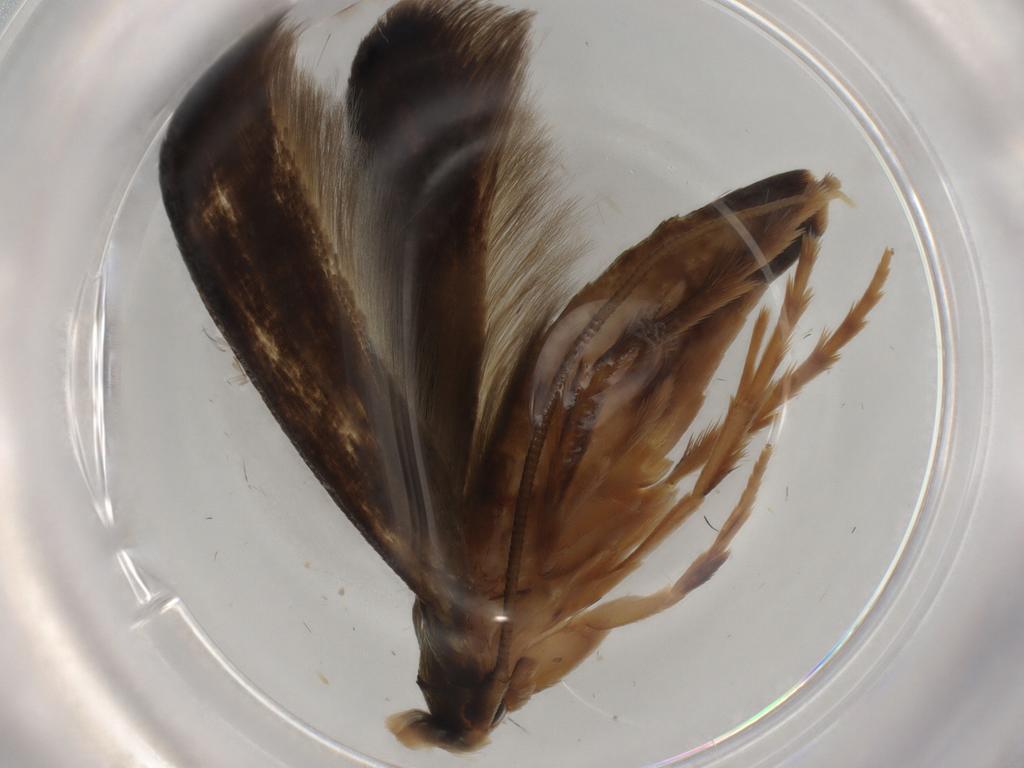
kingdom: Animalia
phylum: Arthropoda
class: Insecta
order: Lepidoptera
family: Tineidae
